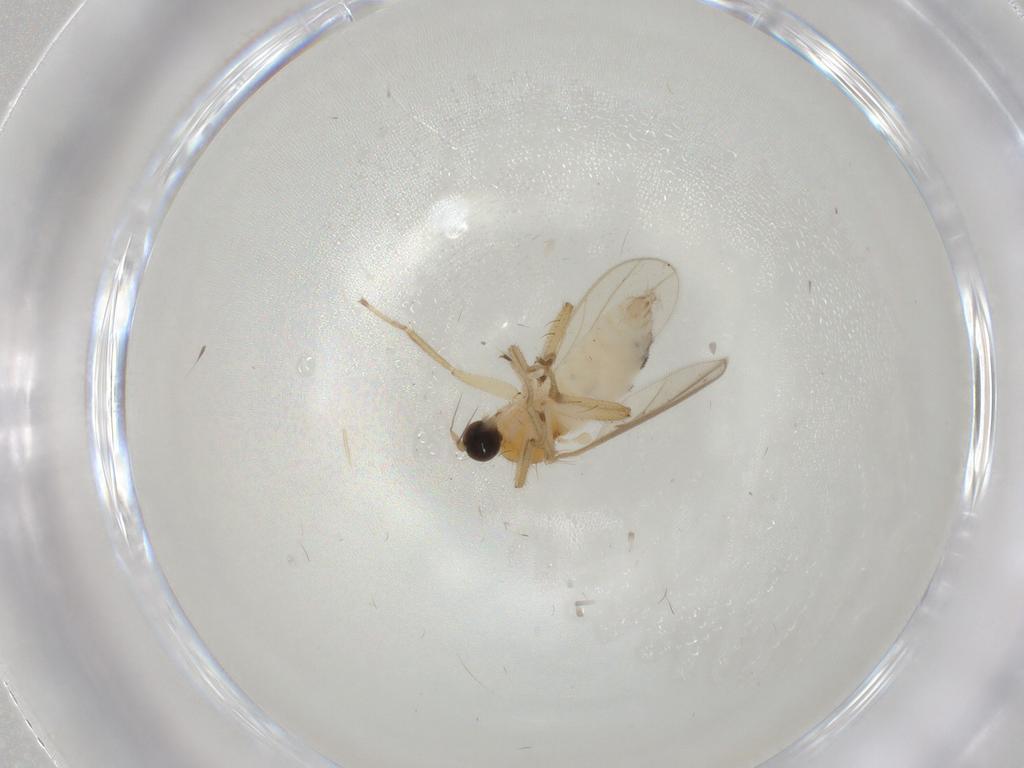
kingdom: Animalia
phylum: Arthropoda
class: Insecta
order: Diptera
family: Hybotidae
